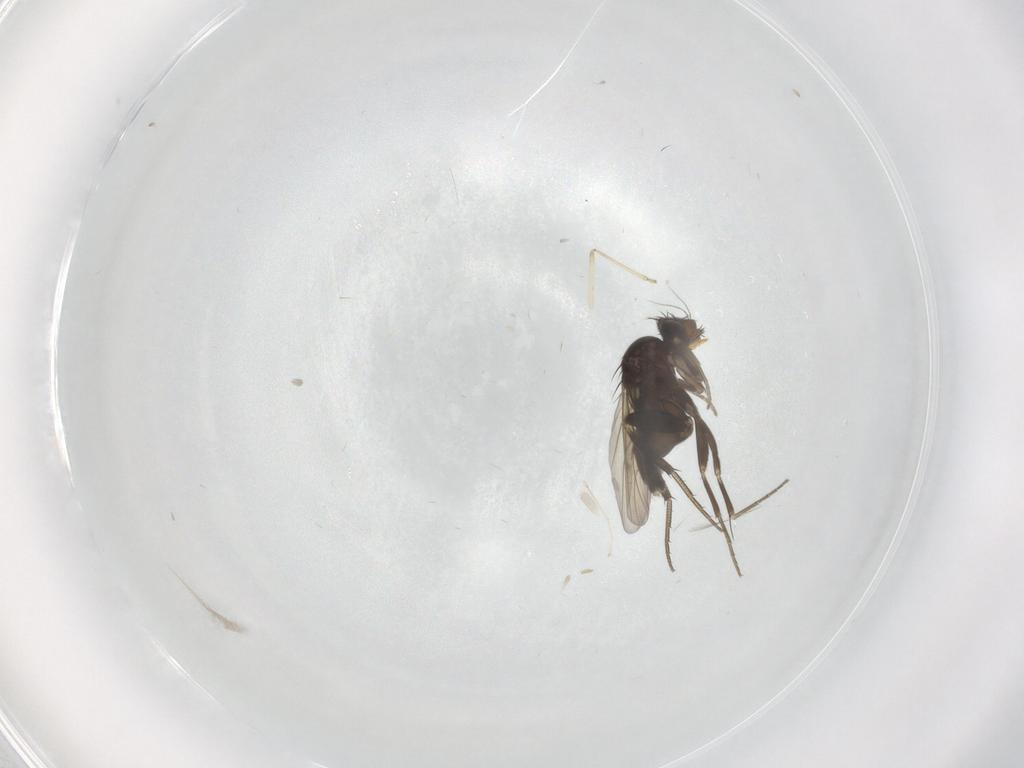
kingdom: Animalia
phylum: Arthropoda
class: Insecta
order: Diptera
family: Phoridae
